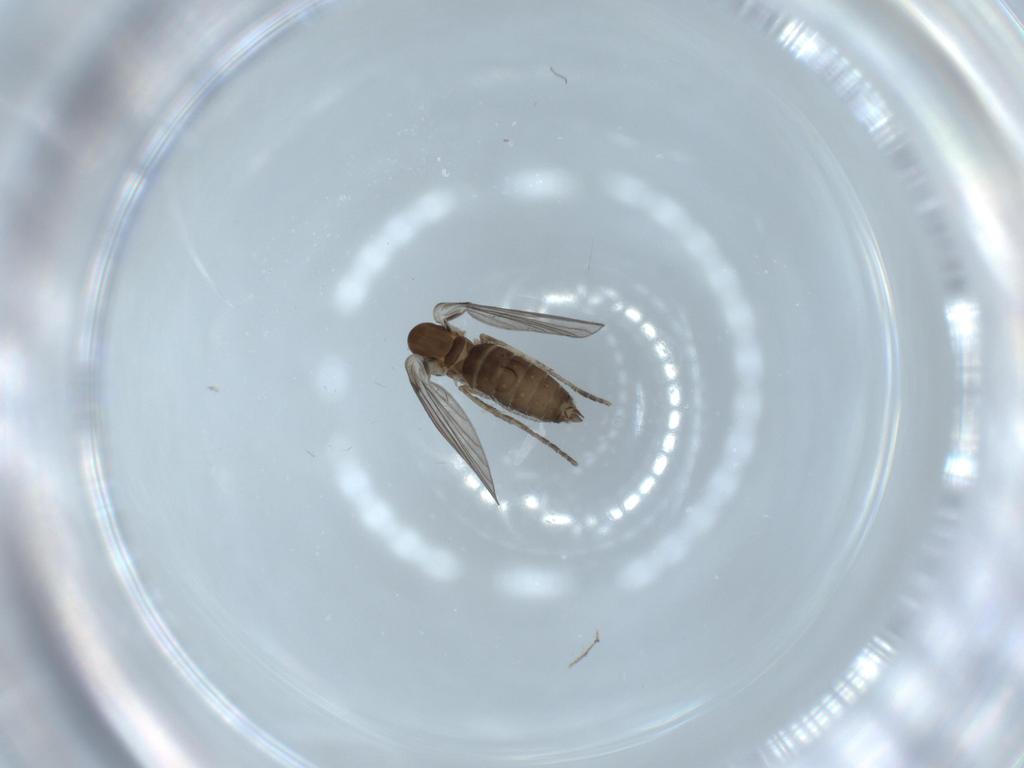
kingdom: Animalia
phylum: Arthropoda
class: Insecta
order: Diptera
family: Psychodidae
